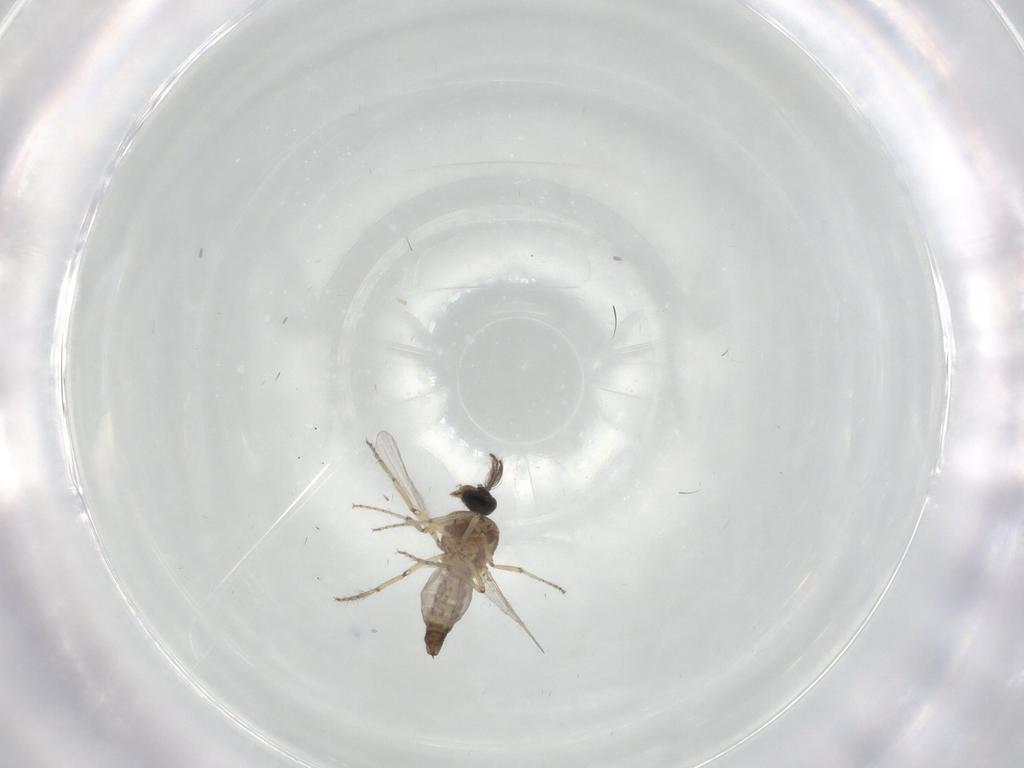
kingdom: Animalia
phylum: Arthropoda
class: Insecta
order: Diptera
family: Ceratopogonidae
